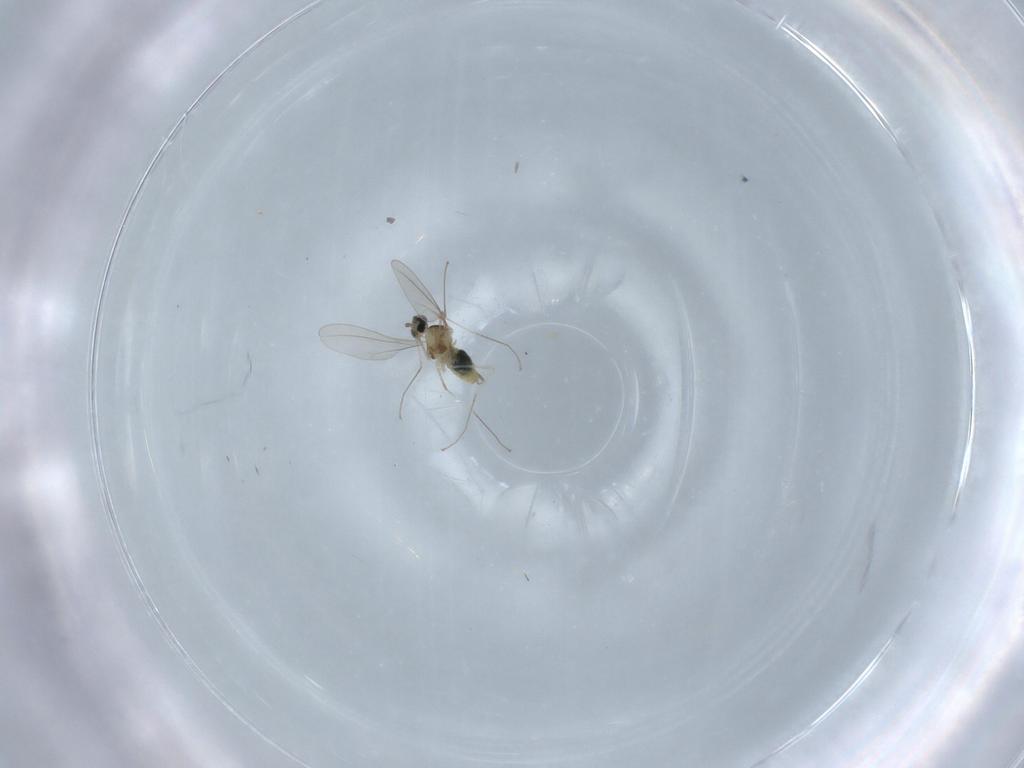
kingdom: Animalia
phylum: Arthropoda
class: Insecta
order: Diptera
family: Cecidomyiidae
